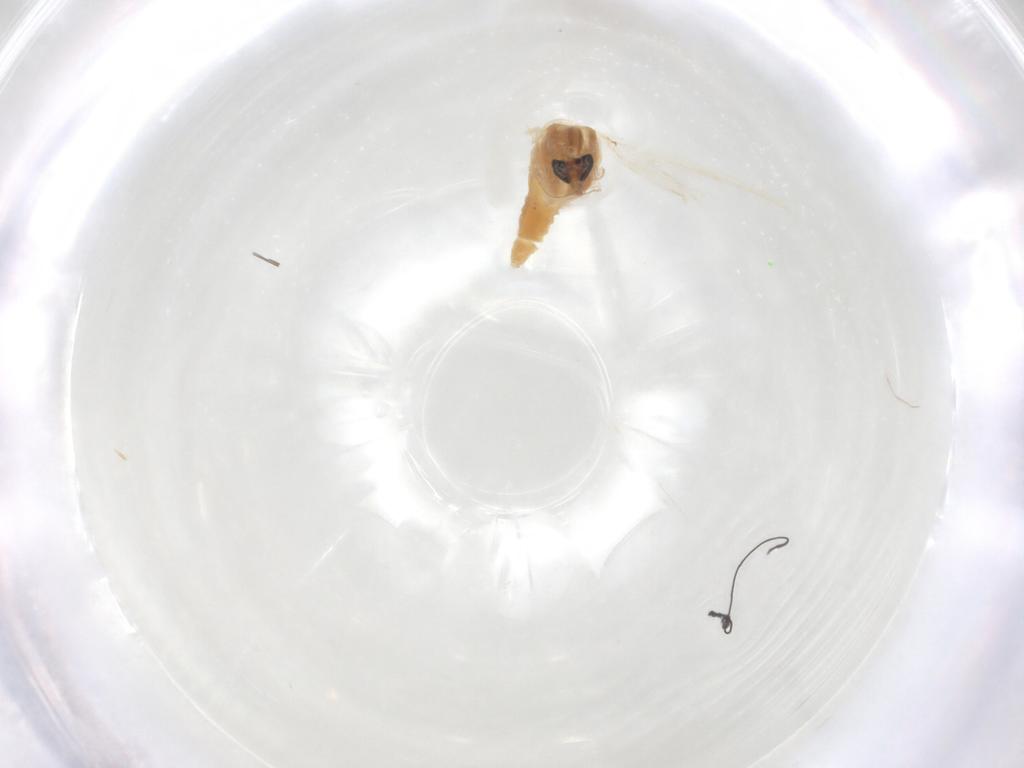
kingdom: Animalia
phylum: Arthropoda
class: Insecta
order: Diptera
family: Chironomidae
